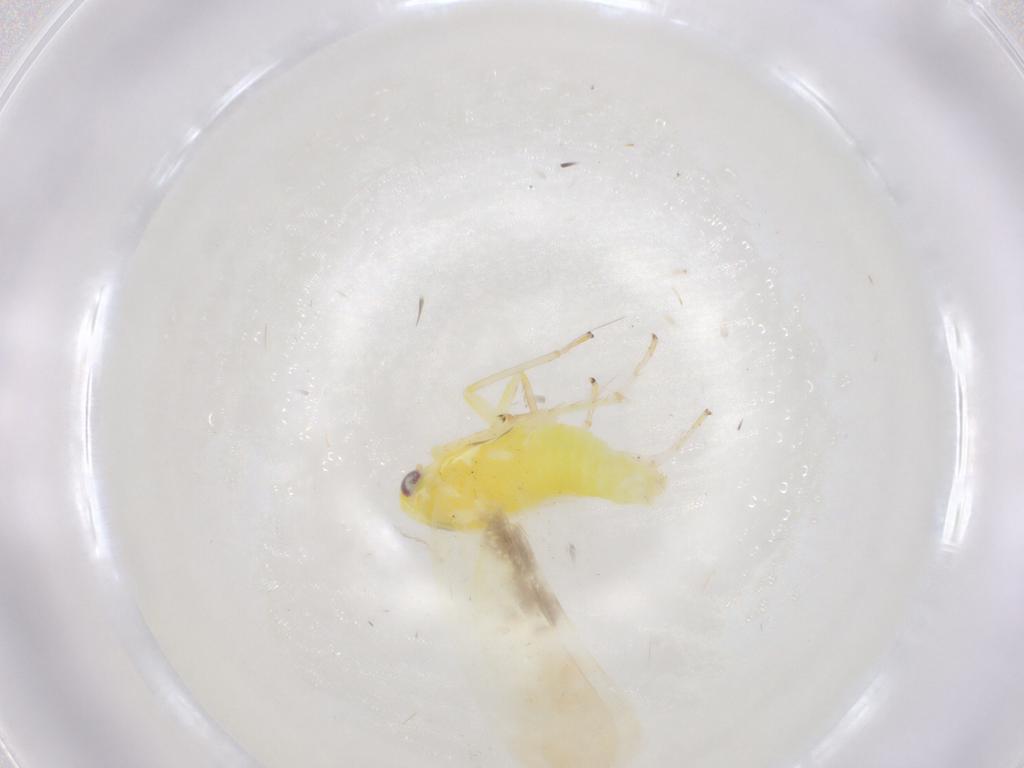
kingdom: Animalia
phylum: Arthropoda
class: Insecta
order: Hemiptera
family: Cicadellidae
